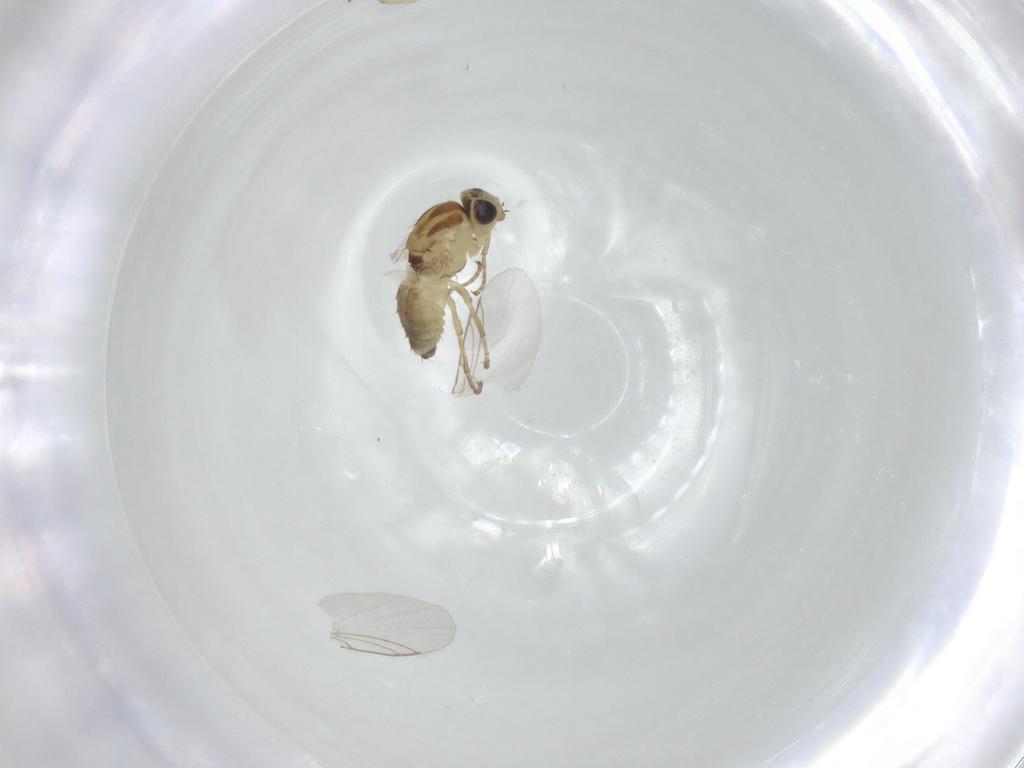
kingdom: Animalia
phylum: Arthropoda
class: Insecta
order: Diptera
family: Agromyzidae
